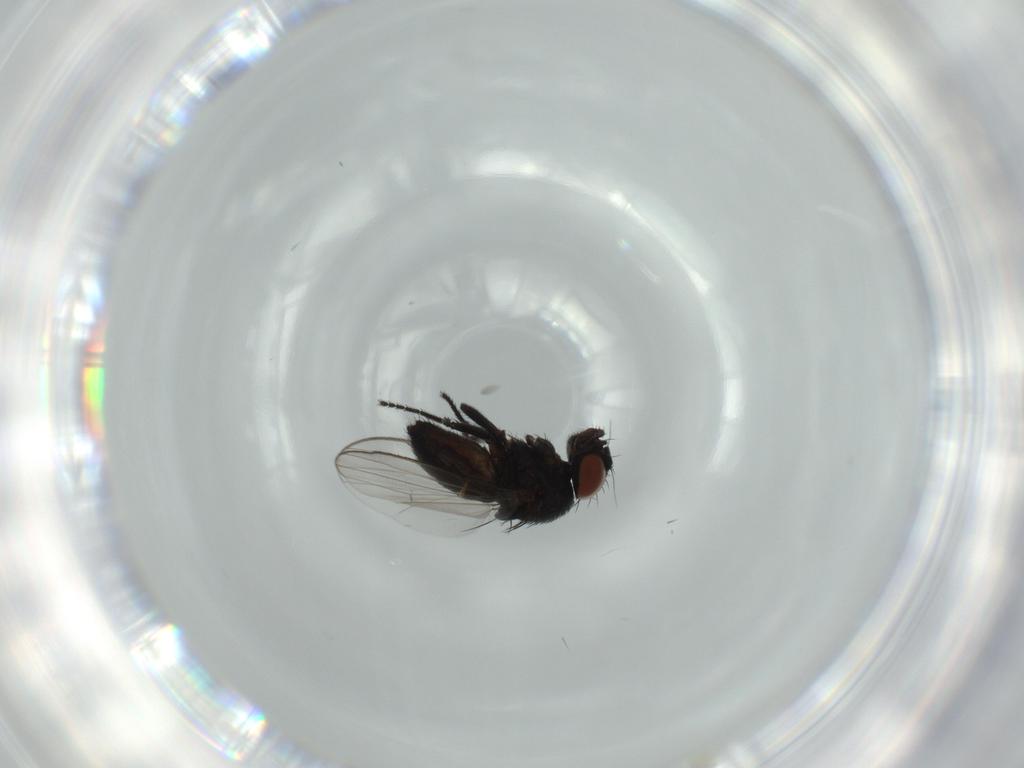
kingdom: Animalia
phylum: Arthropoda
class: Insecta
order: Diptera
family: Milichiidae
